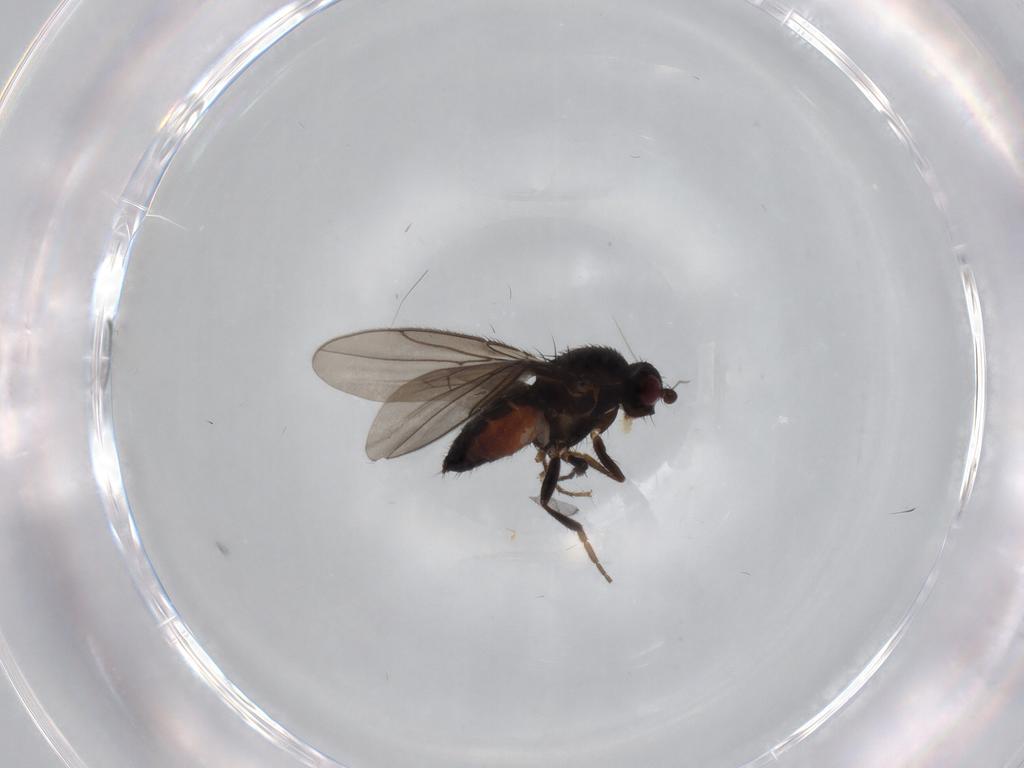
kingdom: Animalia
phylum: Arthropoda
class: Insecta
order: Diptera
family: Sphaeroceridae
